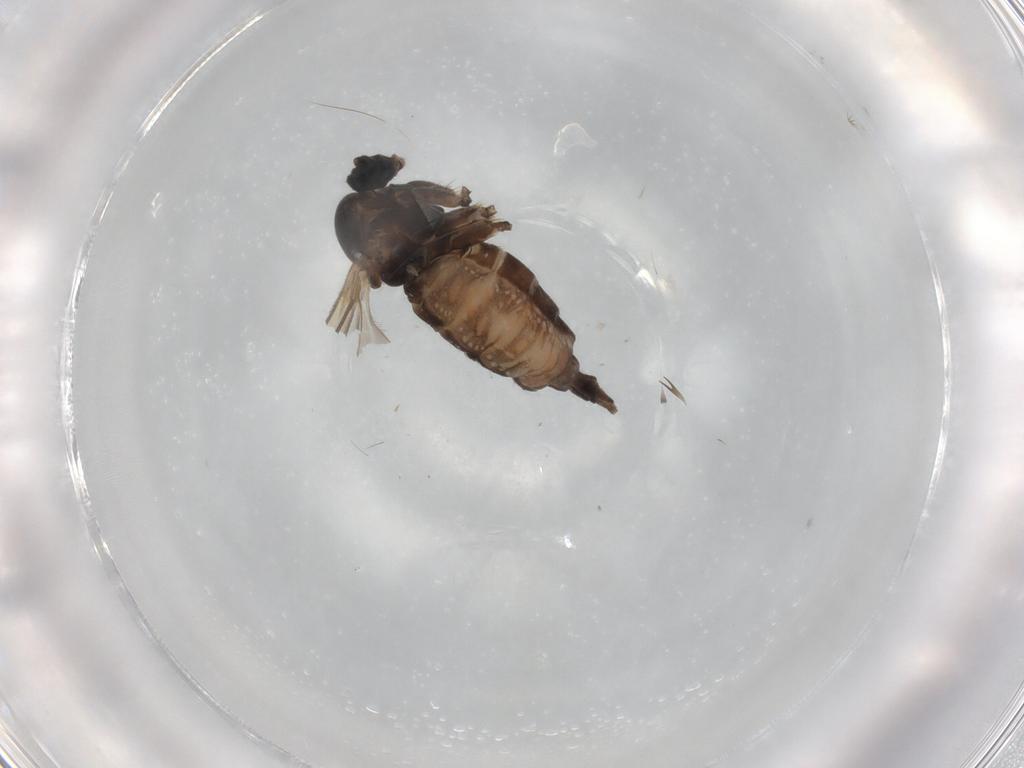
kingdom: Animalia
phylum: Arthropoda
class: Insecta
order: Diptera
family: Sciaridae
